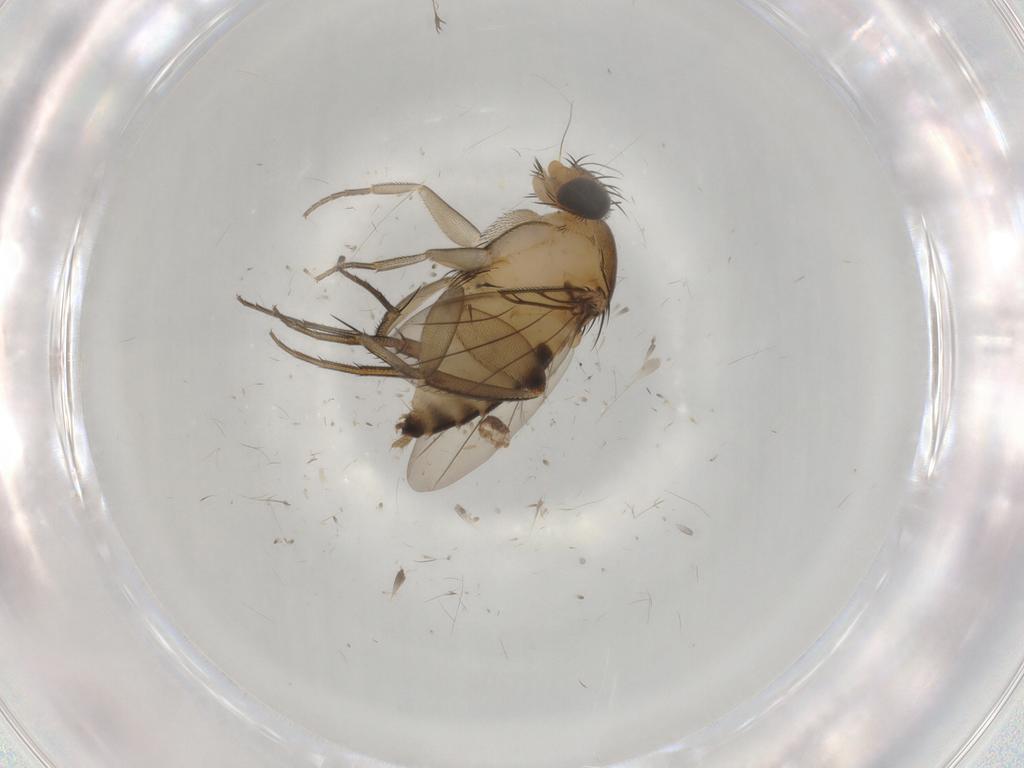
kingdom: Animalia
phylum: Arthropoda
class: Insecta
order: Diptera
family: Phoridae
